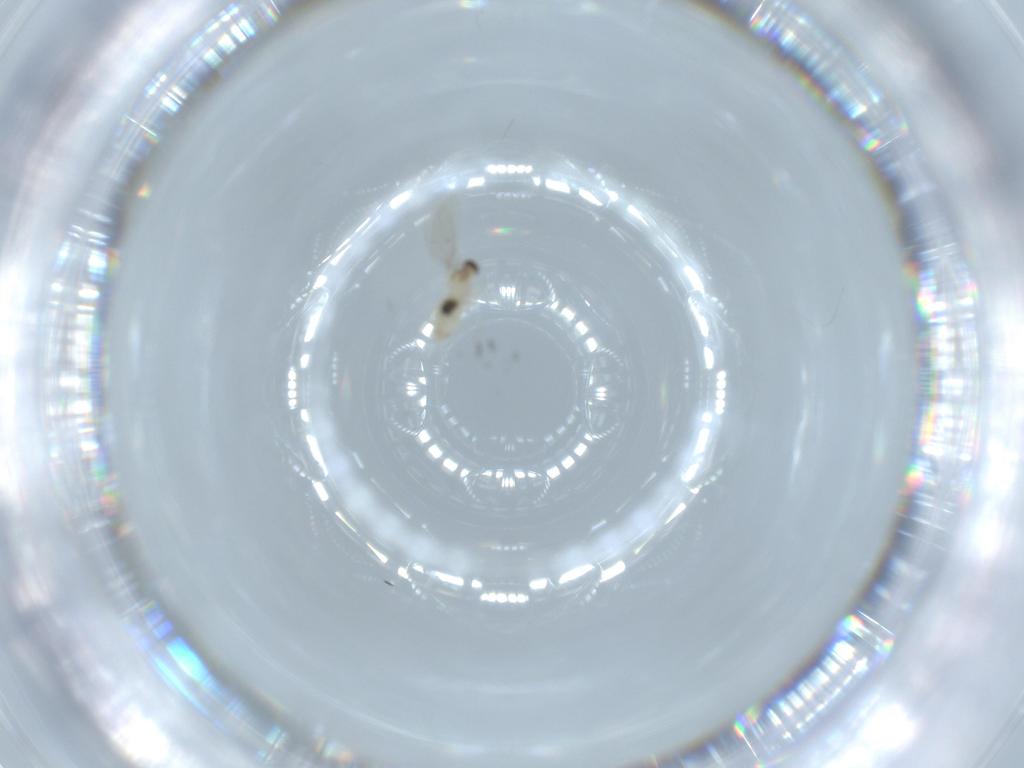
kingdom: Animalia
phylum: Arthropoda
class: Insecta
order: Diptera
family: Cecidomyiidae
